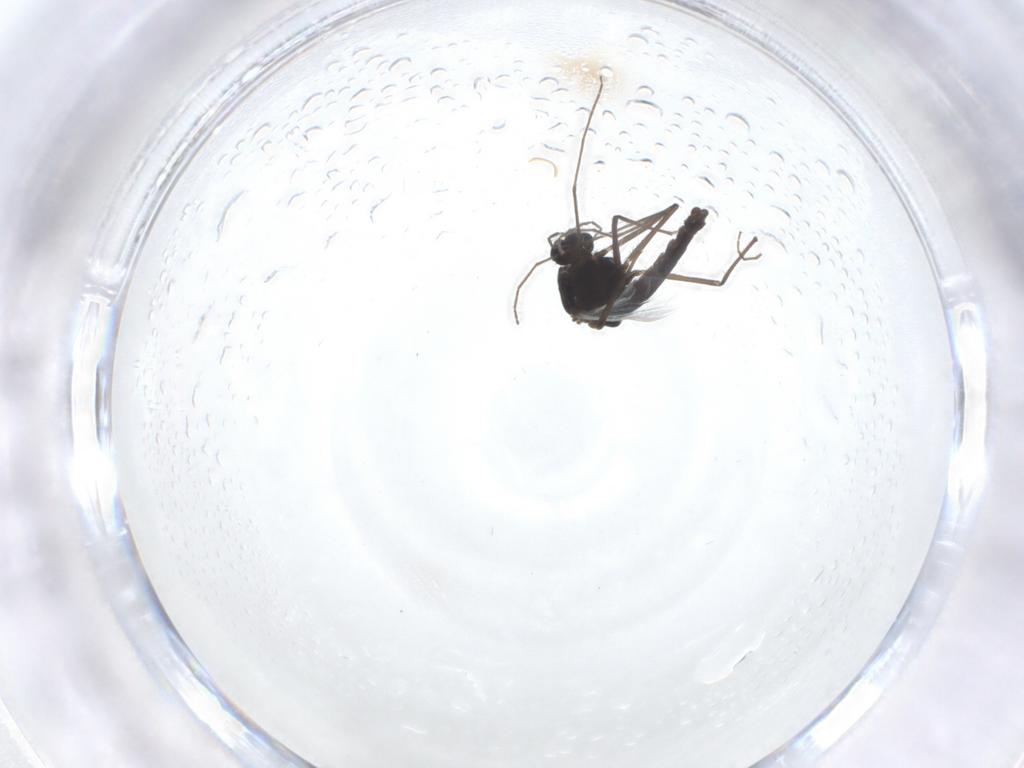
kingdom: Animalia
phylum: Arthropoda
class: Insecta
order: Diptera
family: Chironomidae
